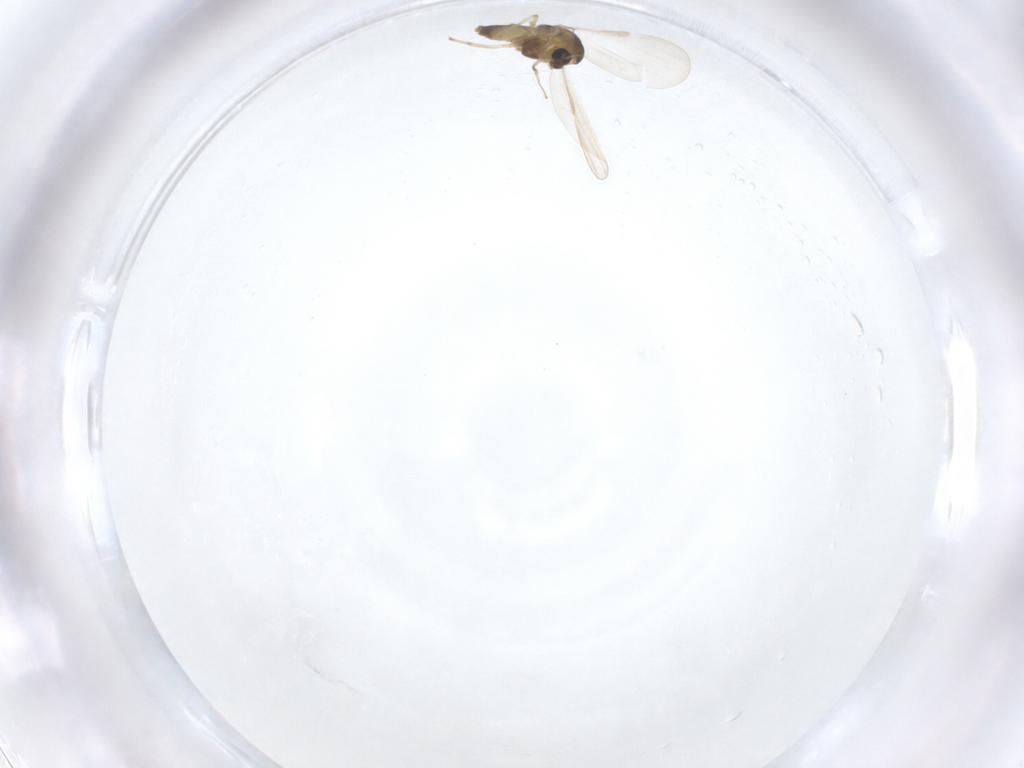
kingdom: Animalia
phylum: Arthropoda
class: Insecta
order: Diptera
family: Chironomidae
